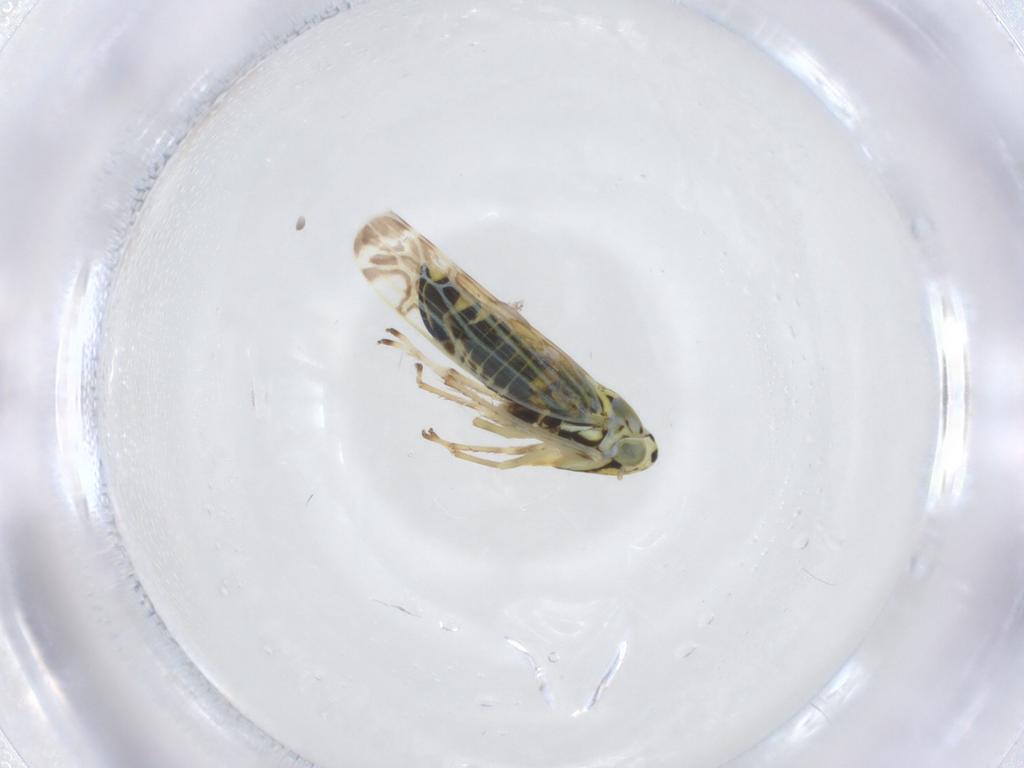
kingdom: Animalia
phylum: Arthropoda
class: Insecta
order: Hemiptera
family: Cicadellidae
